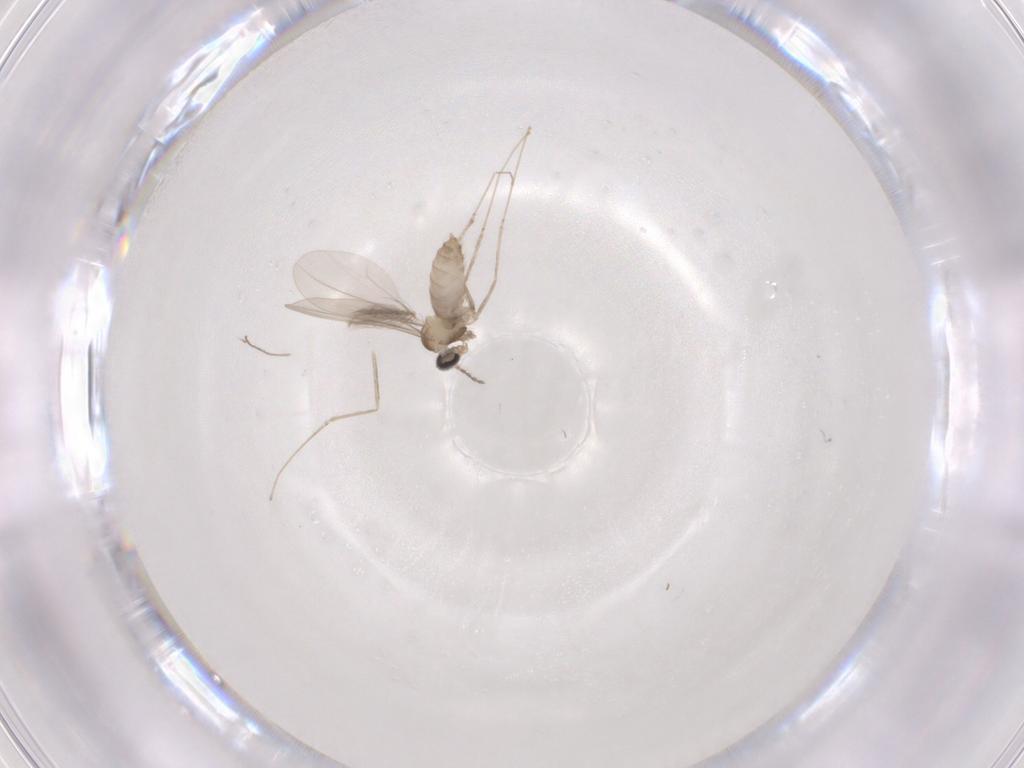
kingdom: Animalia
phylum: Arthropoda
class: Insecta
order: Diptera
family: Ceratopogonidae
